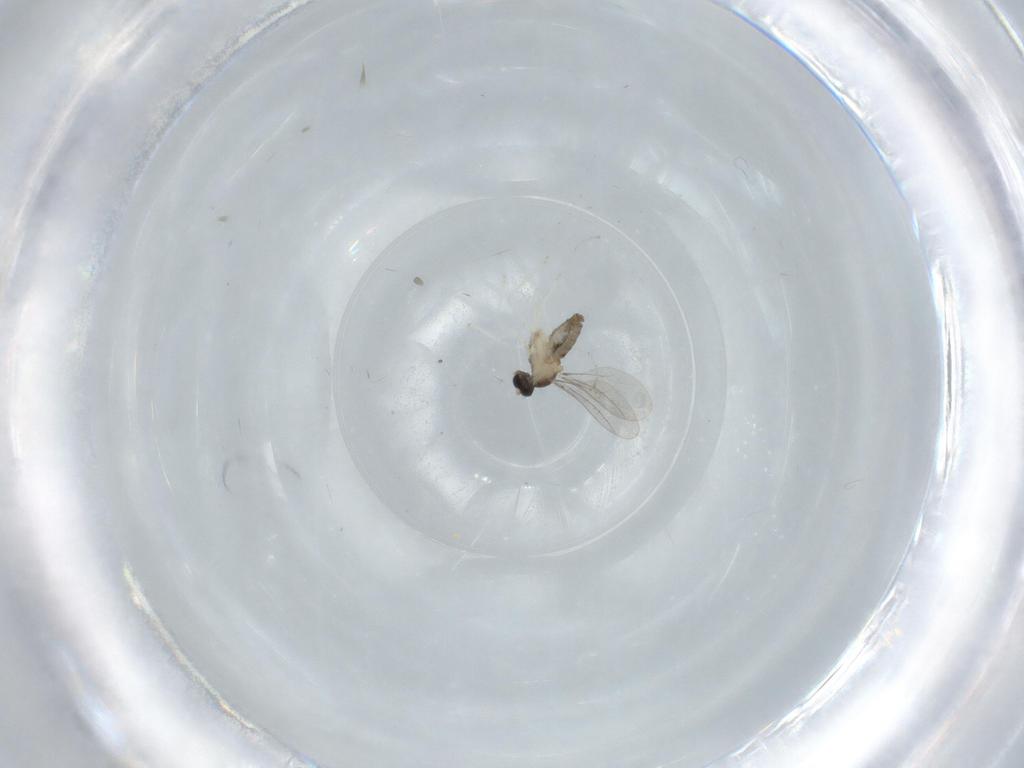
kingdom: Animalia
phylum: Arthropoda
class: Insecta
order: Diptera
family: Cecidomyiidae
